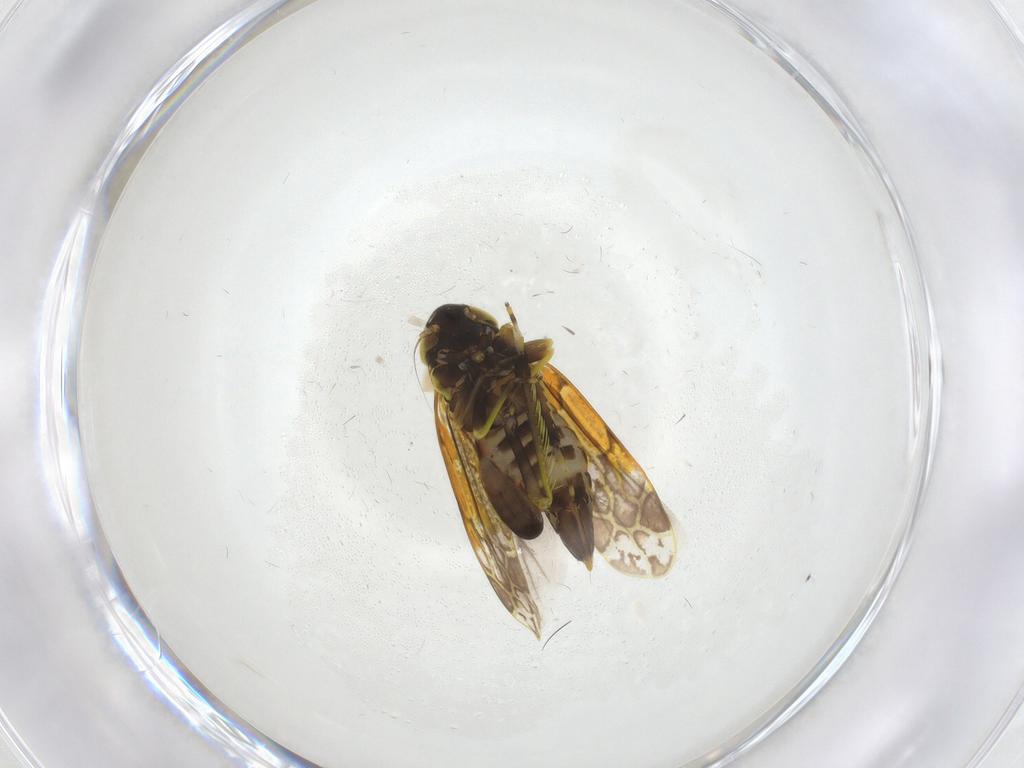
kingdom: Animalia
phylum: Arthropoda
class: Insecta
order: Hemiptera
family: Cicadellidae
